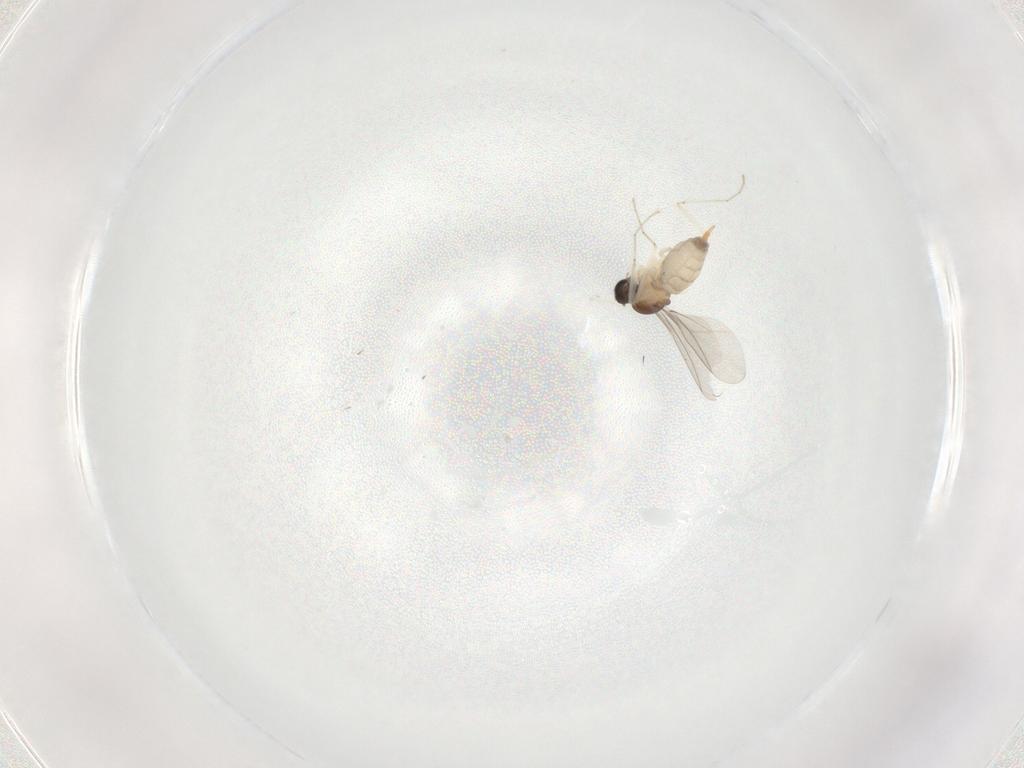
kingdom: Animalia
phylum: Arthropoda
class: Insecta
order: Diptera
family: Cecidomyiidae
